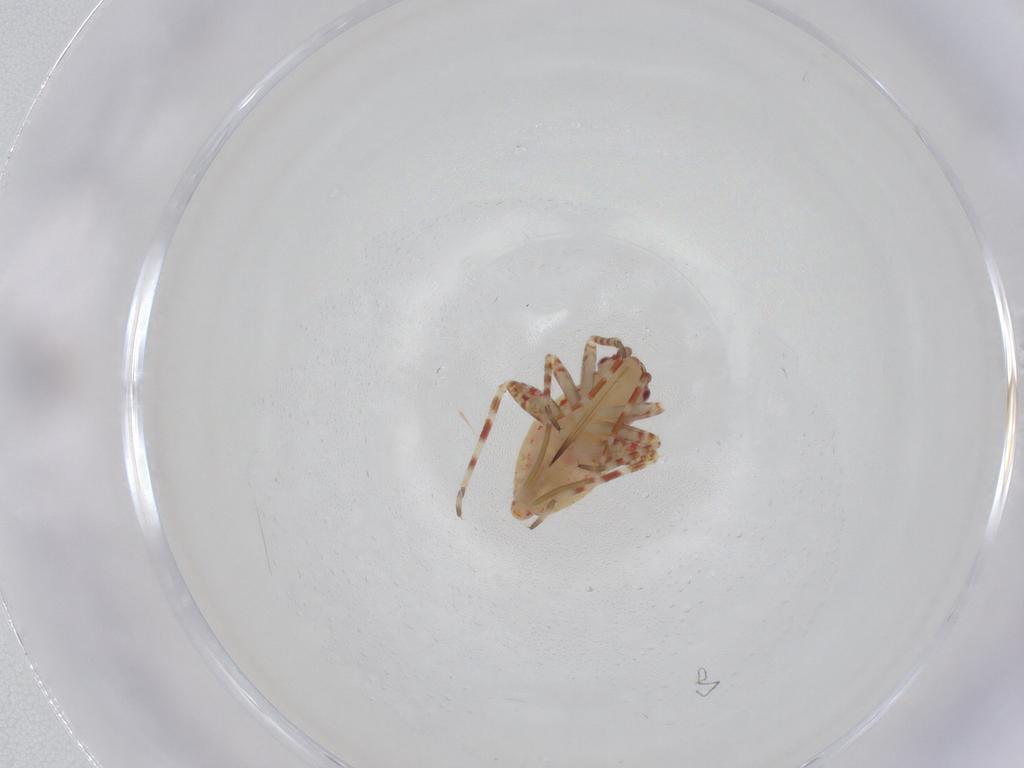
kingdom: Animalia
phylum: Arthropoda
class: Insecta
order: Hemiptera
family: Miridae
